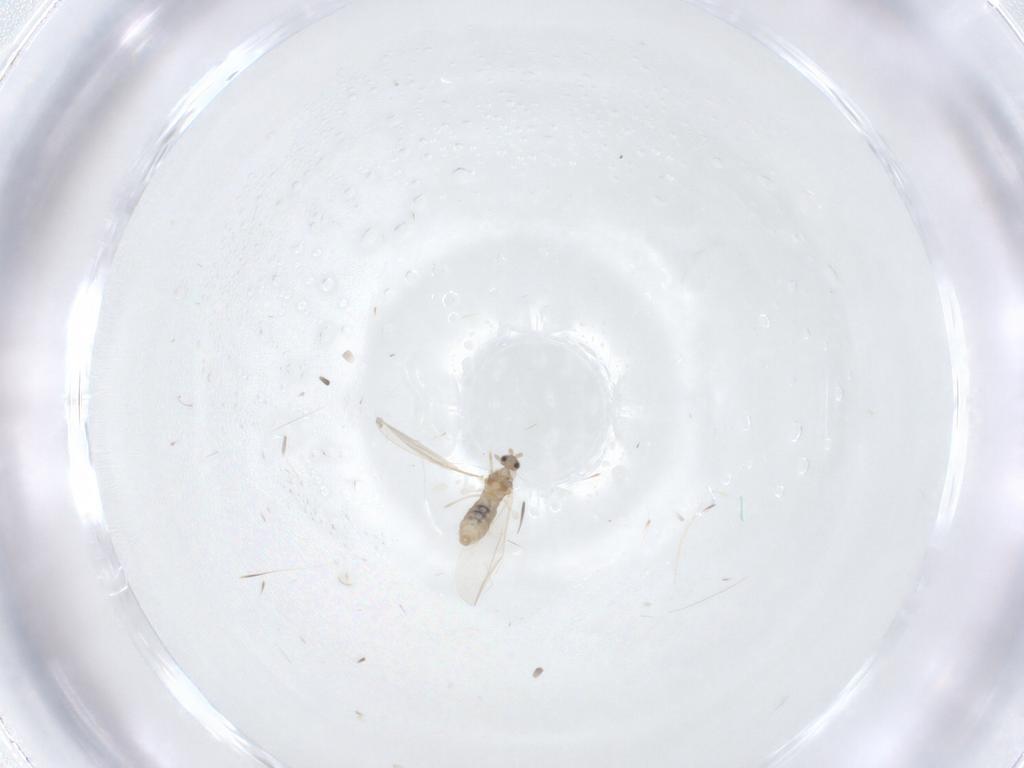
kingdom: Animalia
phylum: Arthropoda
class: Insecta
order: Diptera
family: Cecidomyiidae
